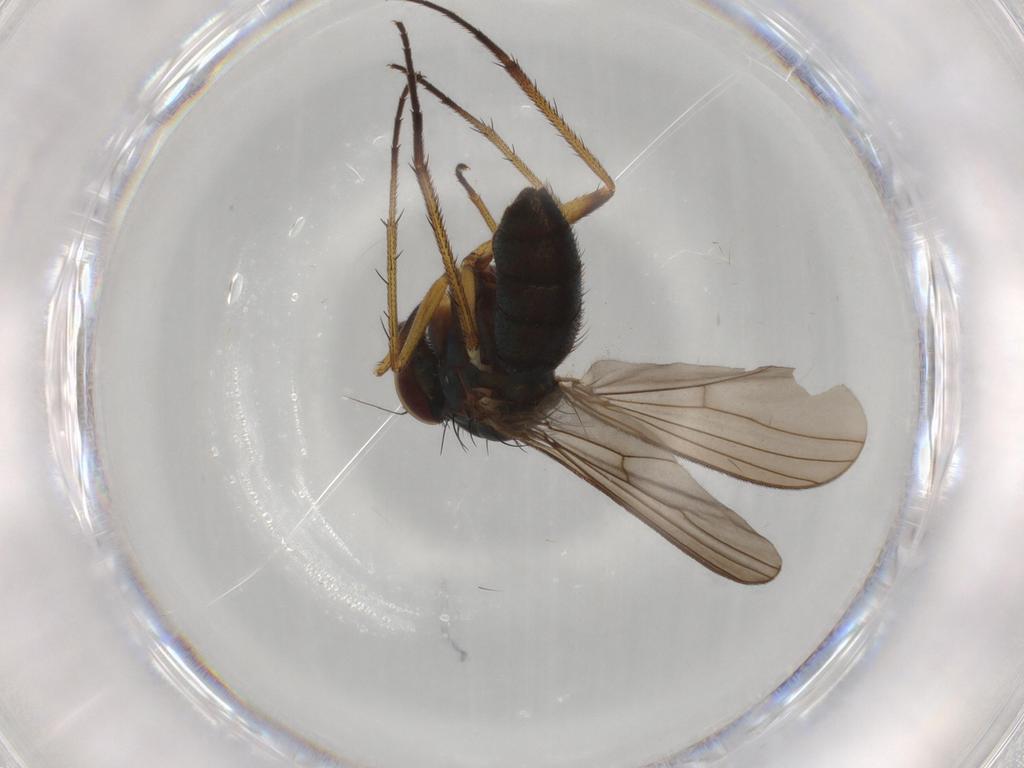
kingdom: Animalia
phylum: Arthropoda
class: Insecta
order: Diptera
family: Dolichopodidae
